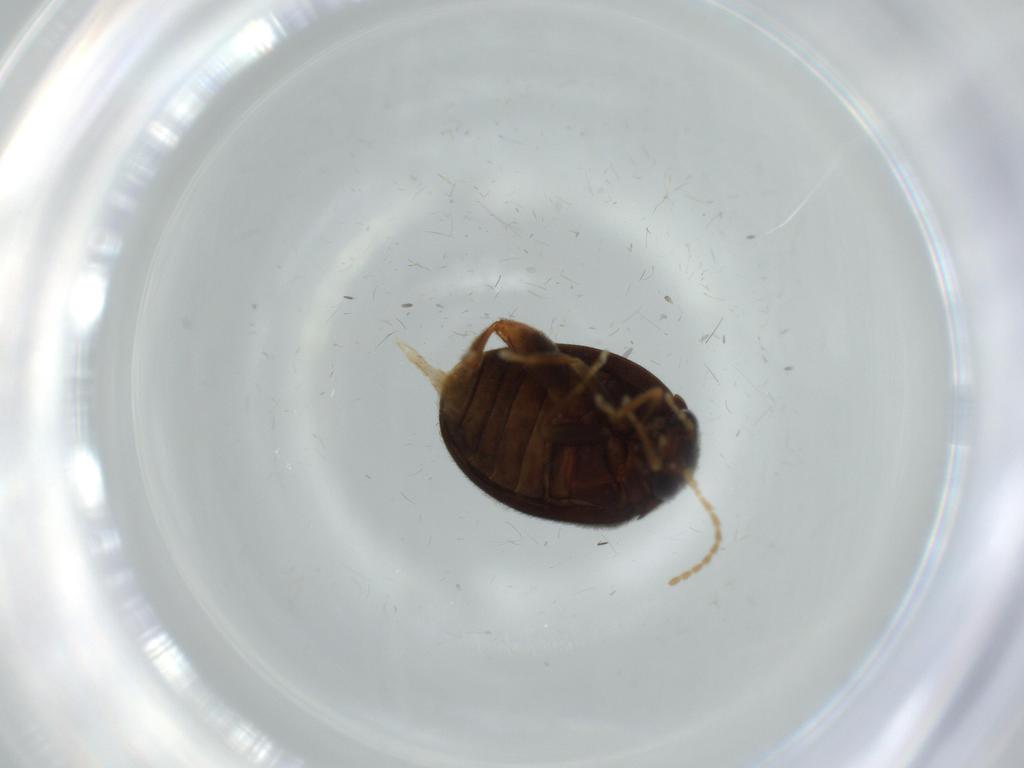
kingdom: Animalia
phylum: Arthropoda
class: Insecta
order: Coleoptera
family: Scirtidae
